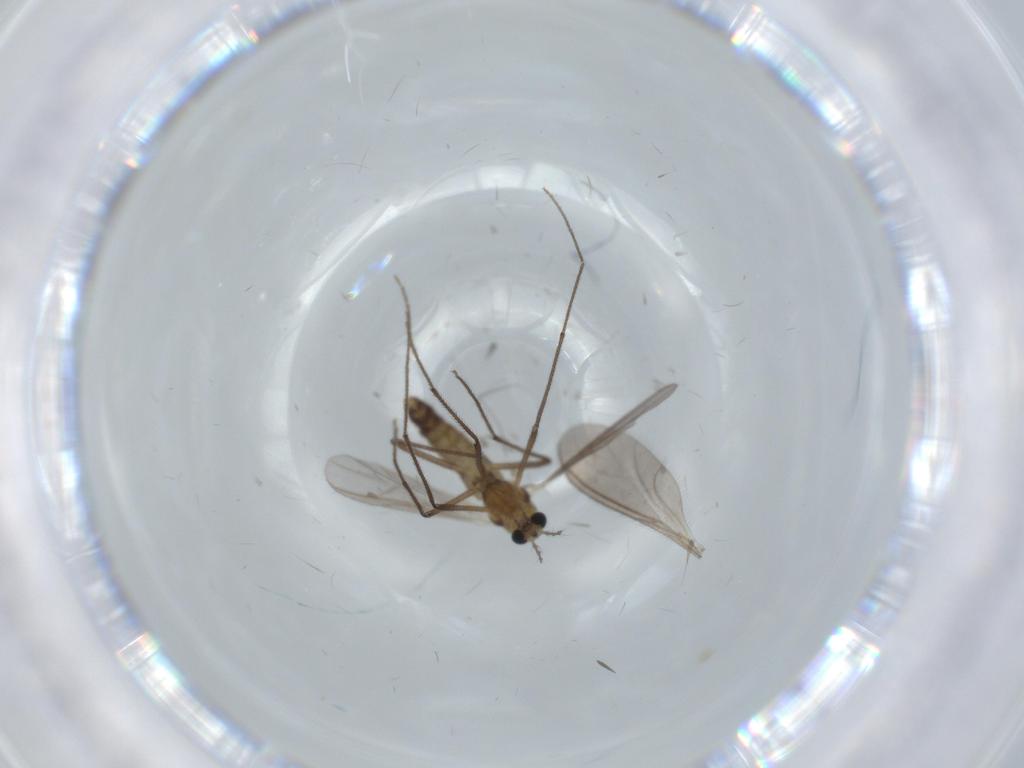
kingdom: Animalia
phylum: Arthropoda
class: Insecta
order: Diptera
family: Chironomidae
